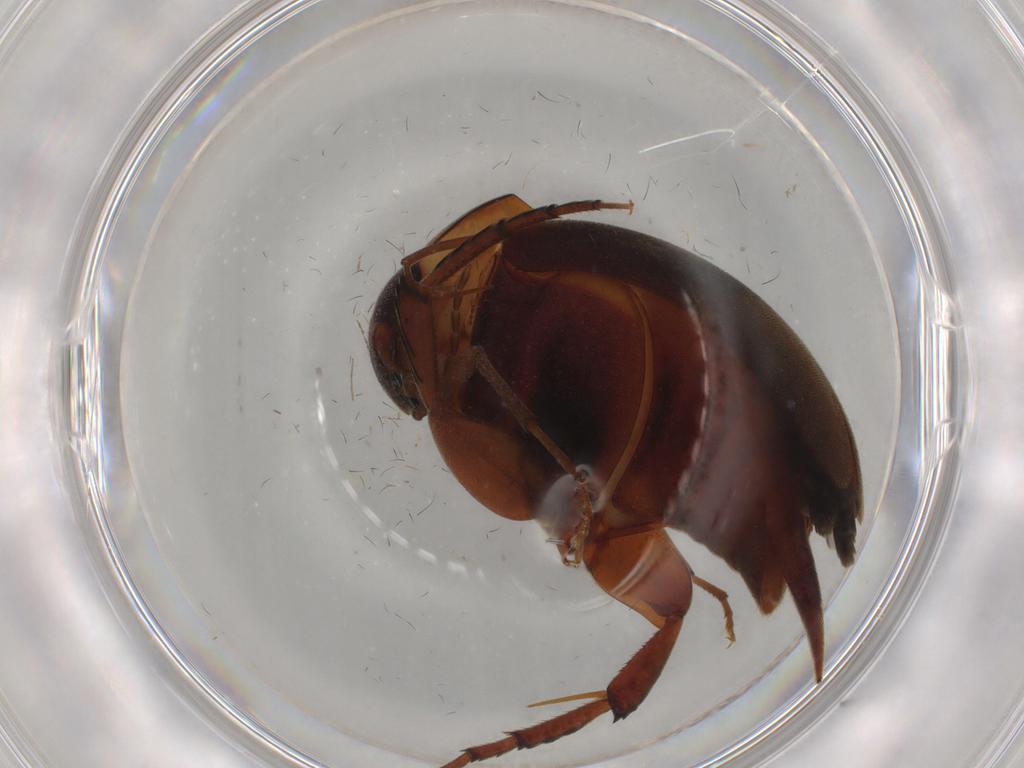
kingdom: Animalia
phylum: Arthropoda
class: Insecta
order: Coleoptera
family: Mordellidae
